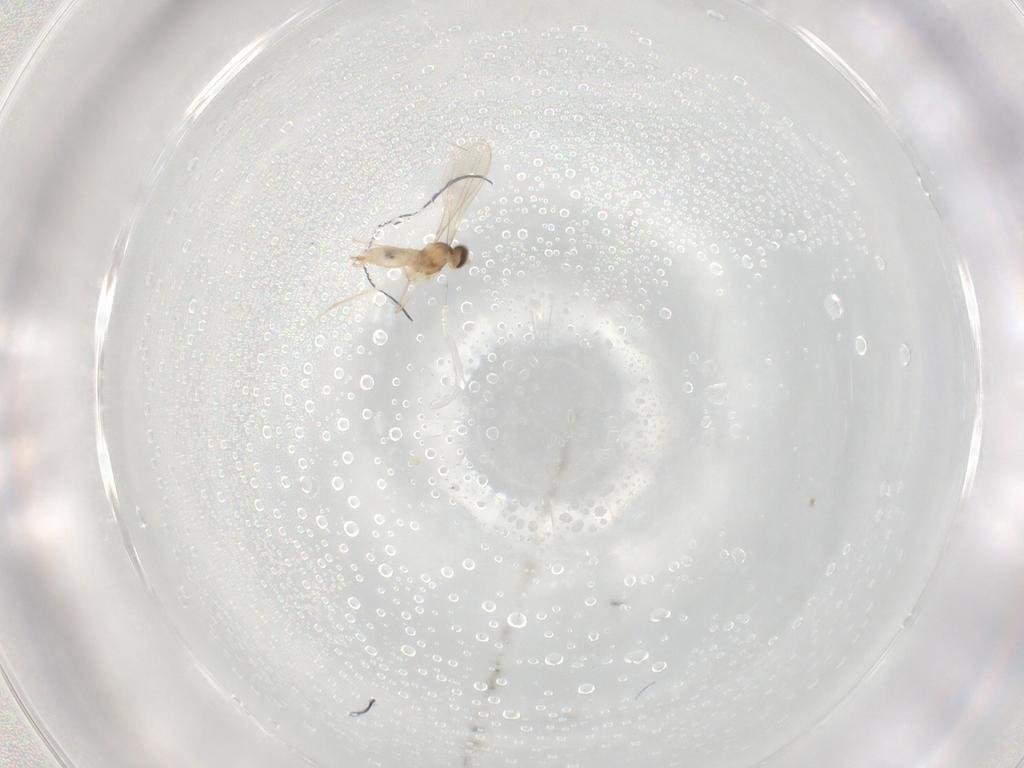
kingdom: Animalia
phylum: Arthropoda
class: Insecta
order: Diptera
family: Cecidomyiidae
